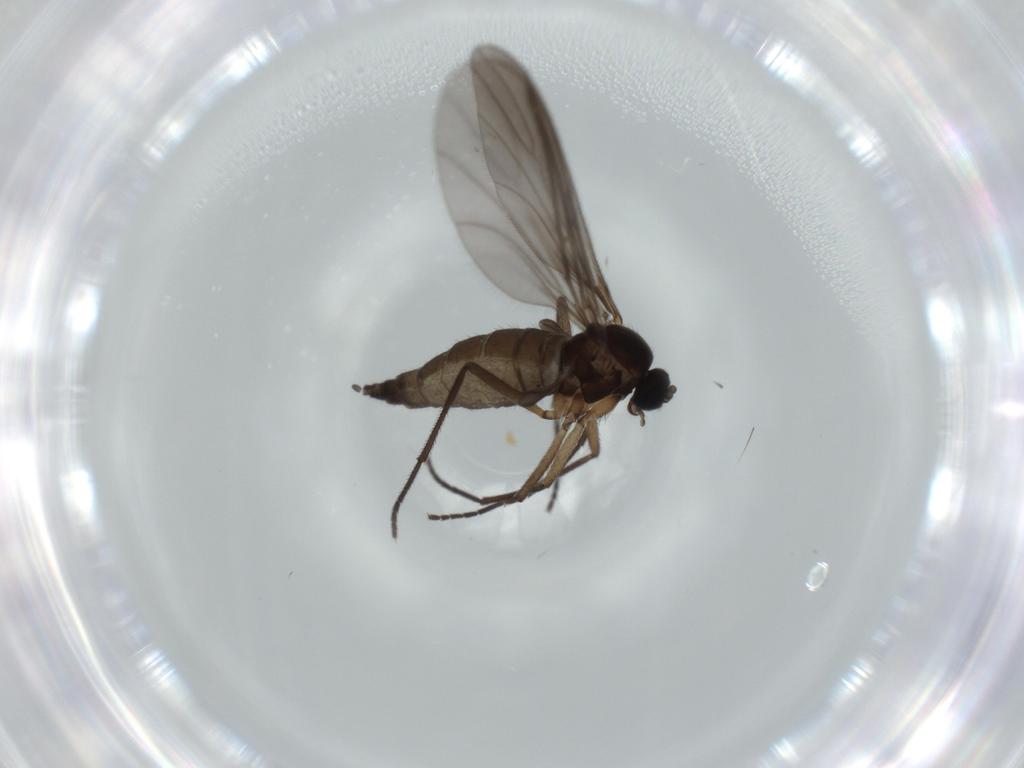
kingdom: Animalia
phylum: Arthropoda
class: Insecta
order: Diptera
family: Sciaridae
